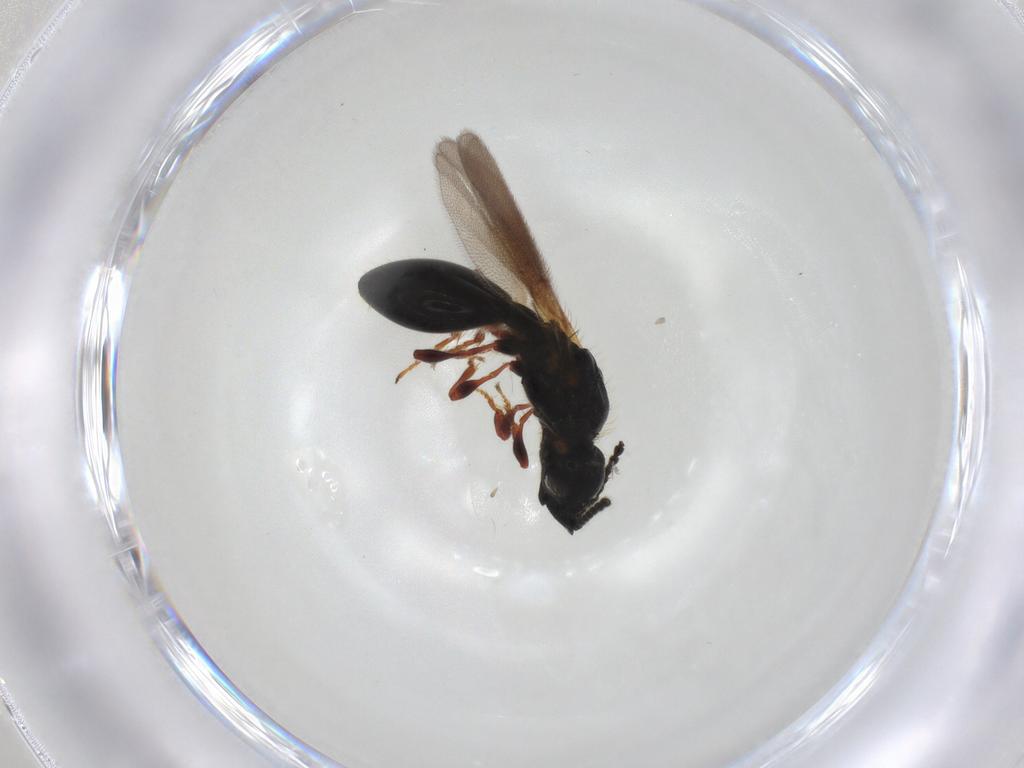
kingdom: Animalia
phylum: Arthropoda
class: Insecta
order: Hymenoptera
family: Diapriidae
